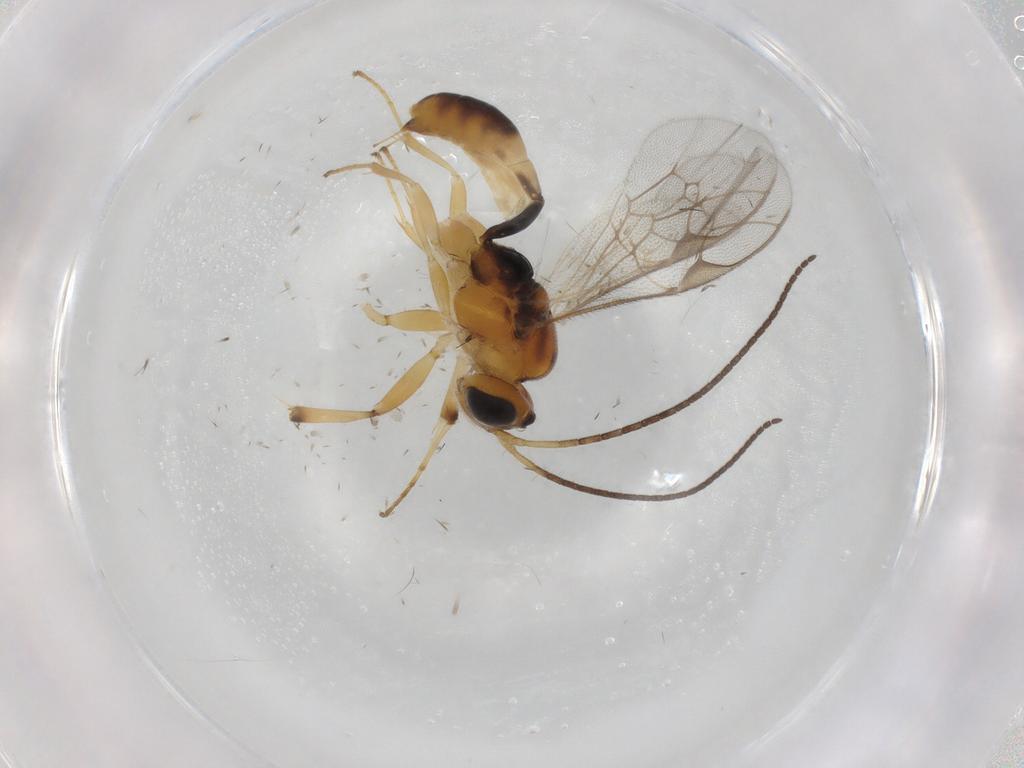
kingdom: Animalia
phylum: Arthropoda
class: Insecta
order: Hymenoptera
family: Ichneumonidae
